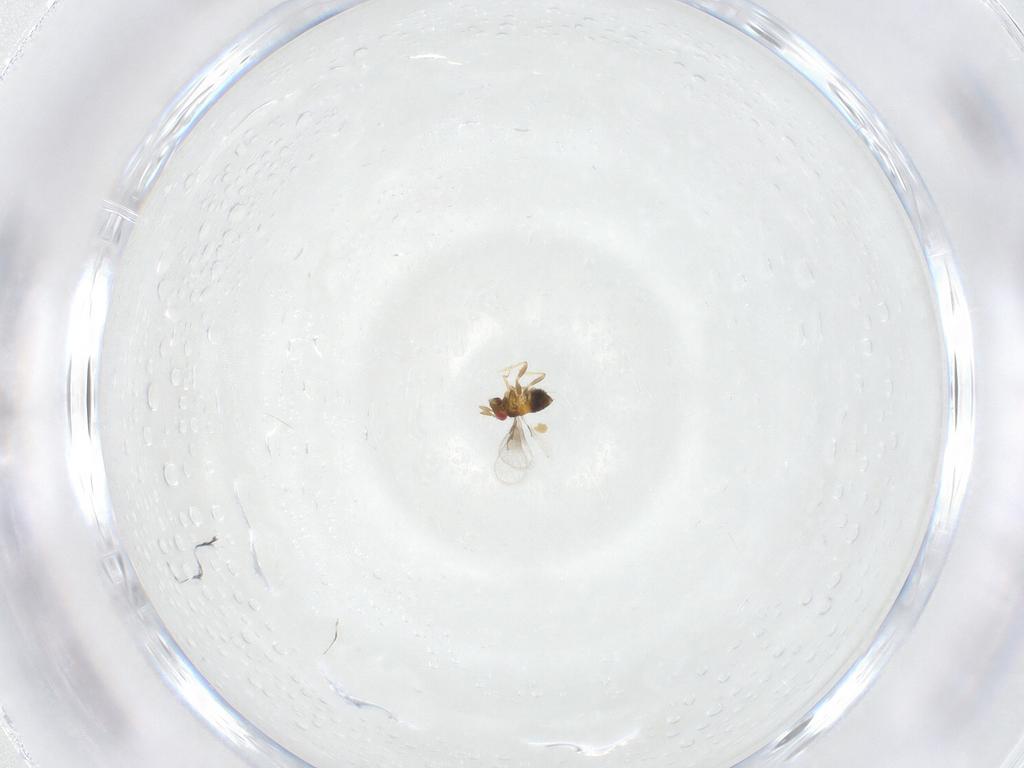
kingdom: Animalia
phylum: Arthropoda
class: Insecta
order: Hymenoptera
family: Trichogrammatidae
